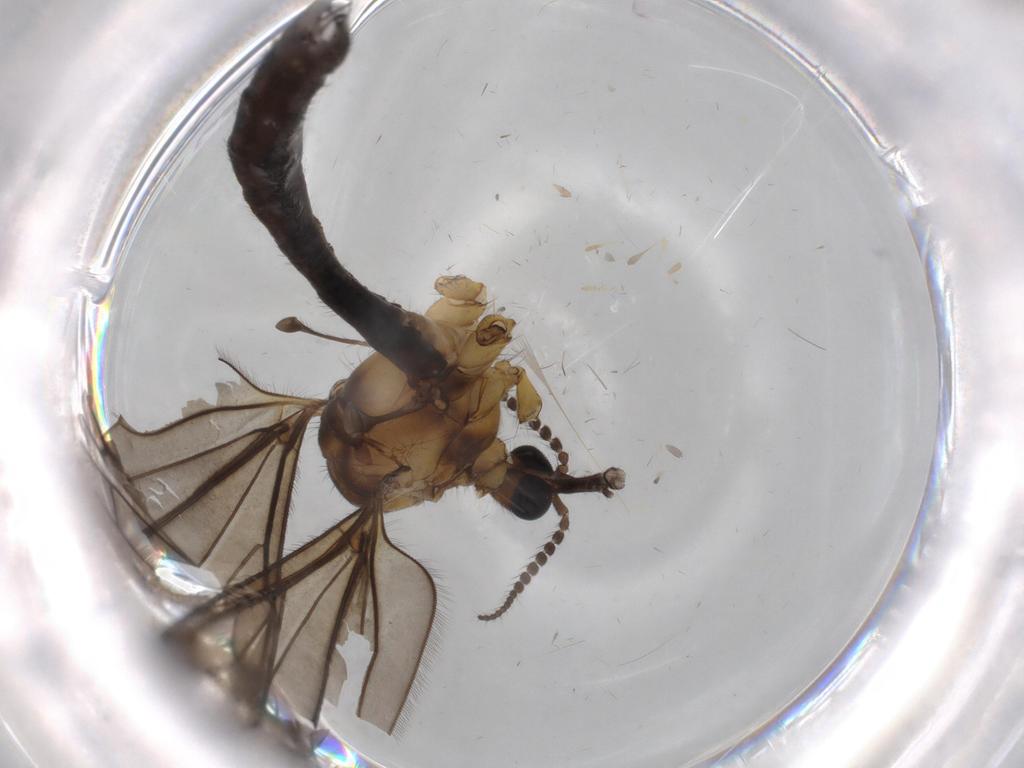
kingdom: Animalia
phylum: Arthropoda
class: Insecta
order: Diptera
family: Limoniidae
